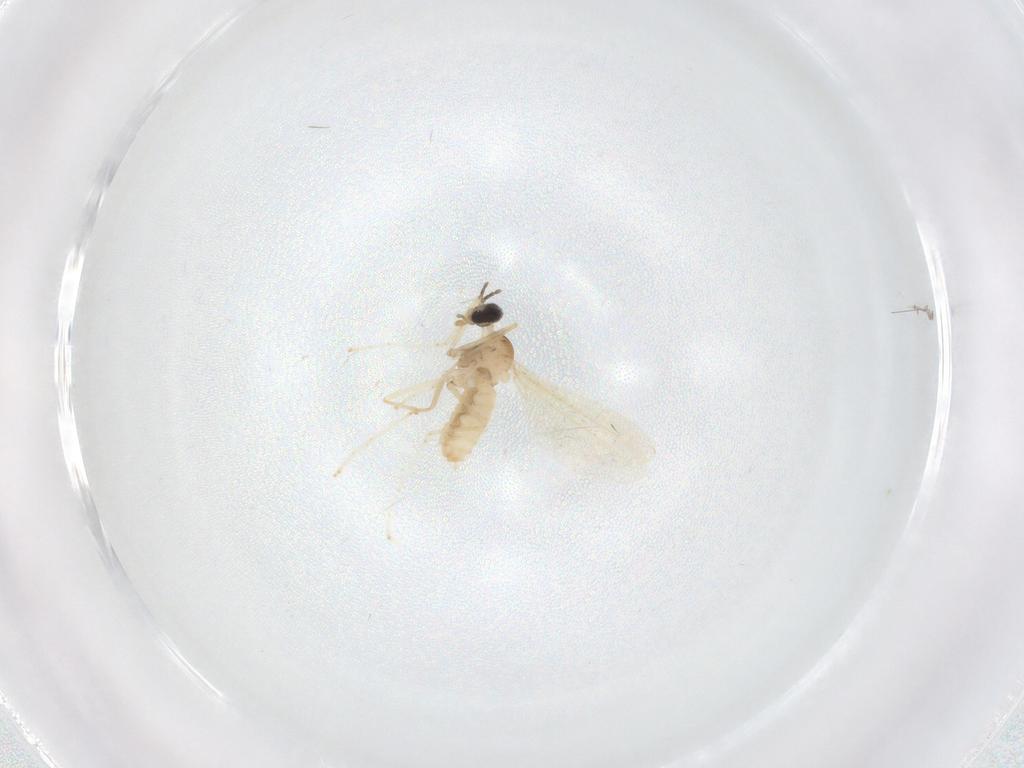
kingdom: Animalia
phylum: Arthropoda
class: Insecta
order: Diptera
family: Cecidomyiidae
